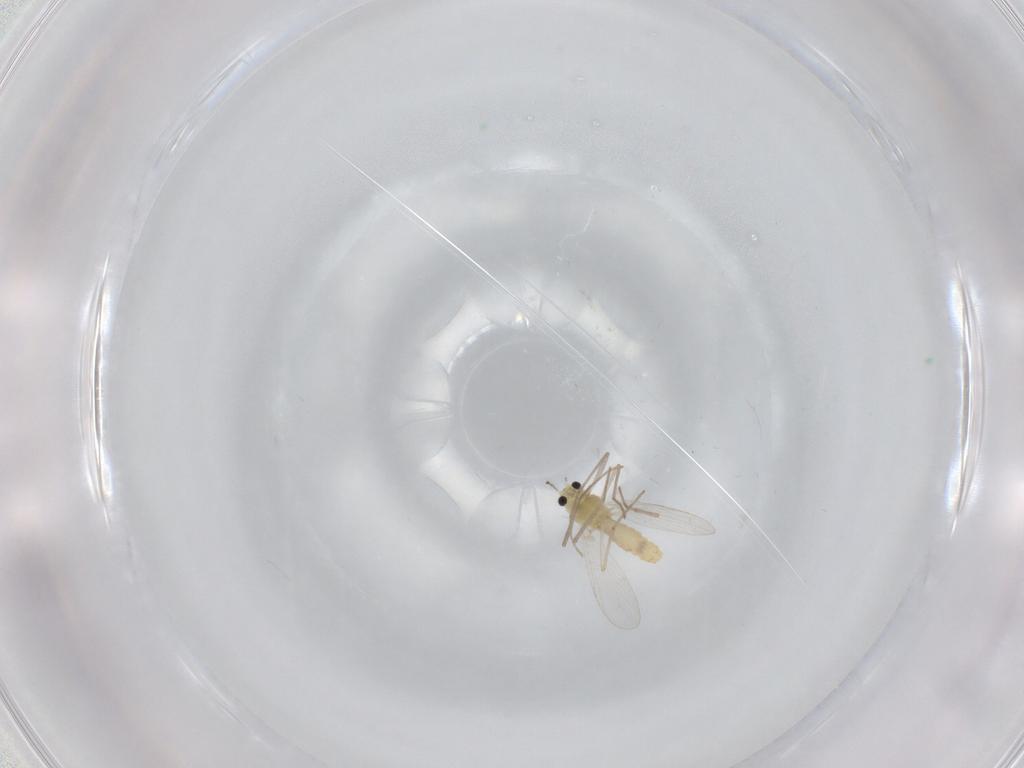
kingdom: Animalia
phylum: Arthropoda
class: Insecta
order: Diptera
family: Chironomidae
